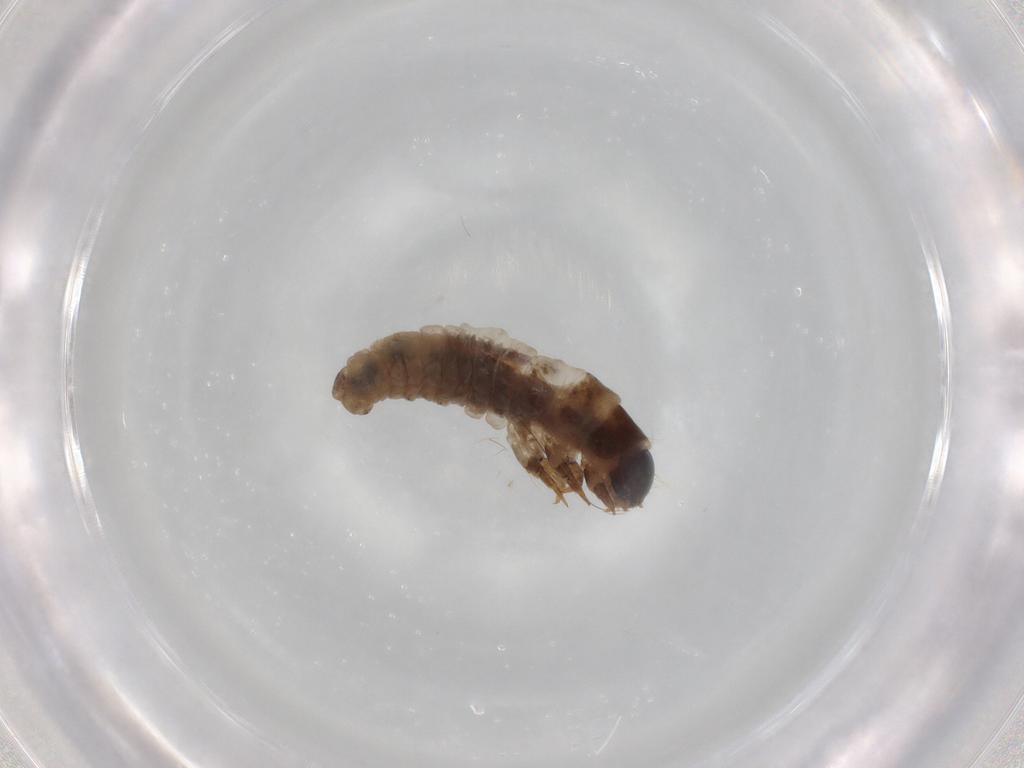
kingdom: Animalia
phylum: Arthropoda
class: Insecta
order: Lepidoptera
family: Psychidae
